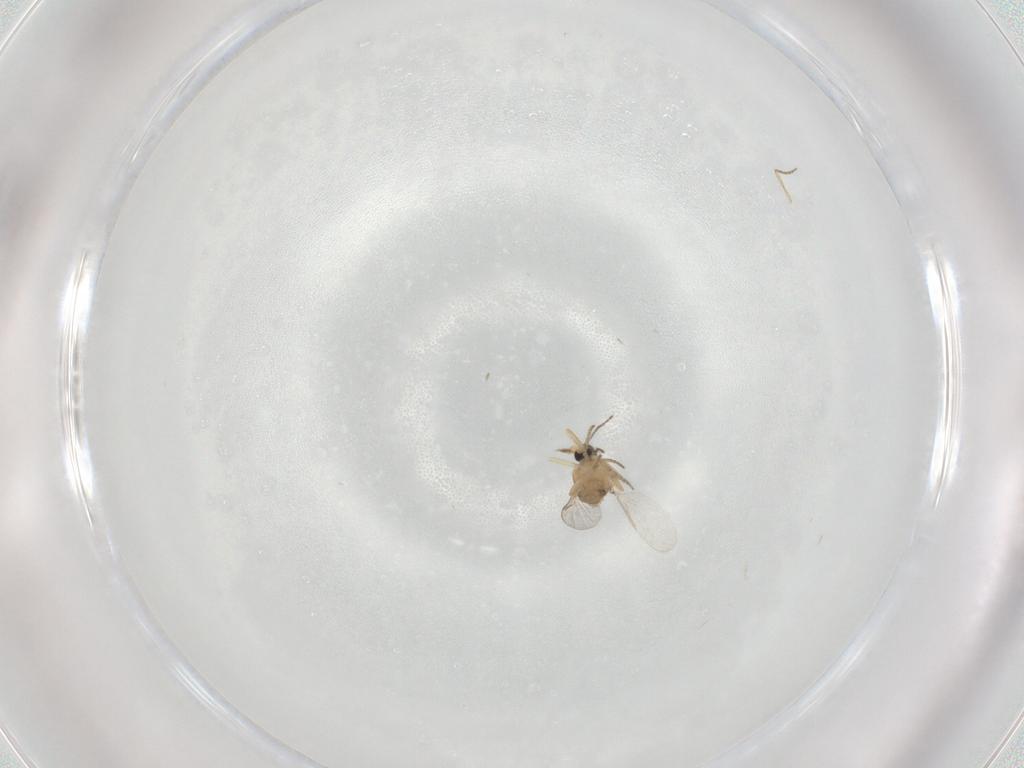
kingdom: Animalia
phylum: Arthropoda
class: Insecta
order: Diptera
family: Ceratopogonidae
